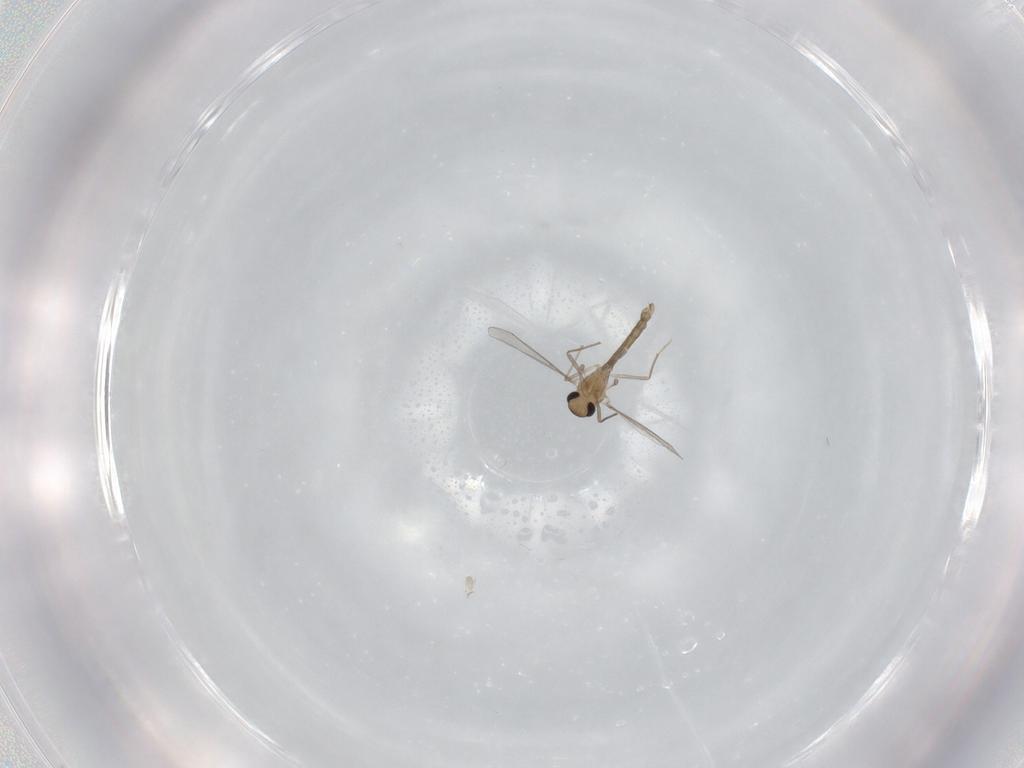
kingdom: Animalia
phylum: Arthropoda
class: Insecta
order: Diptera
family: Chironomidae
